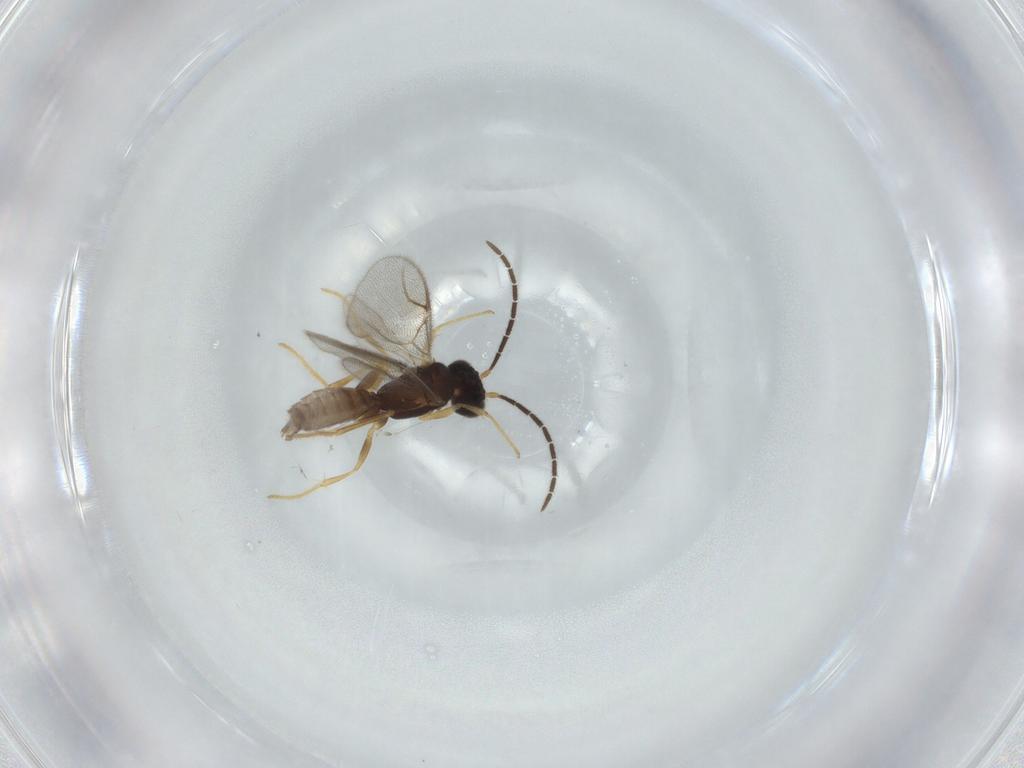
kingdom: Animalia
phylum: Arthropoda
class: Insecta
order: Hymenoptera
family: Dryinidae
